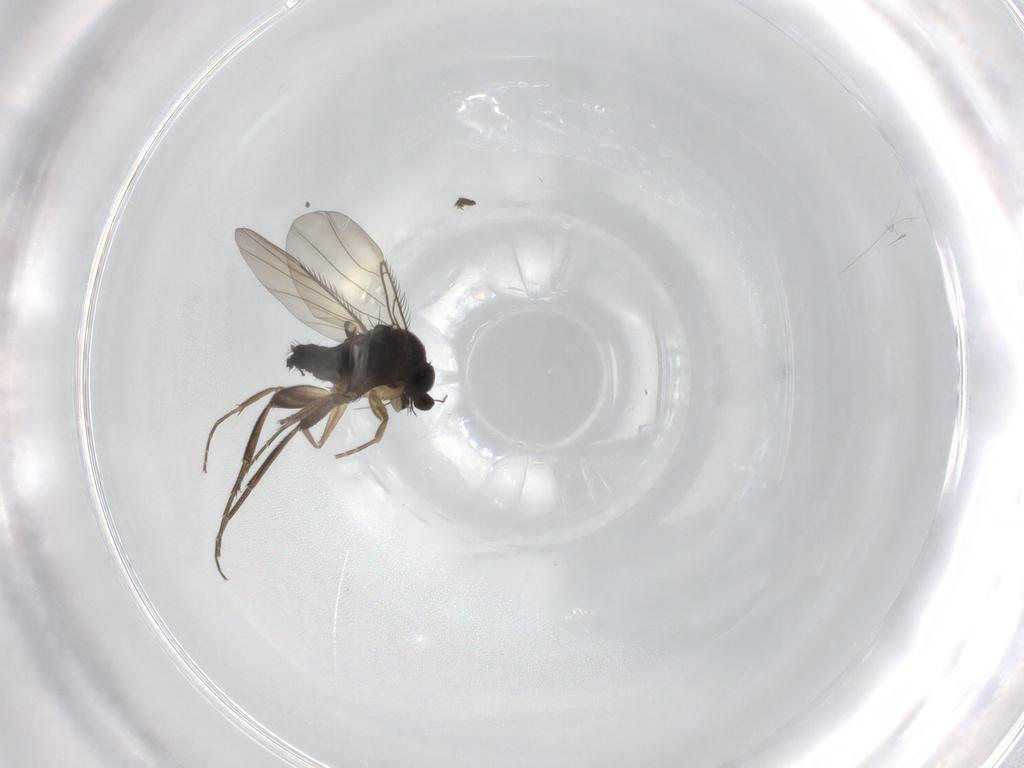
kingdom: Animalia
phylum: Arthropoda
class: Insecta
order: Diptera
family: Phoridae
